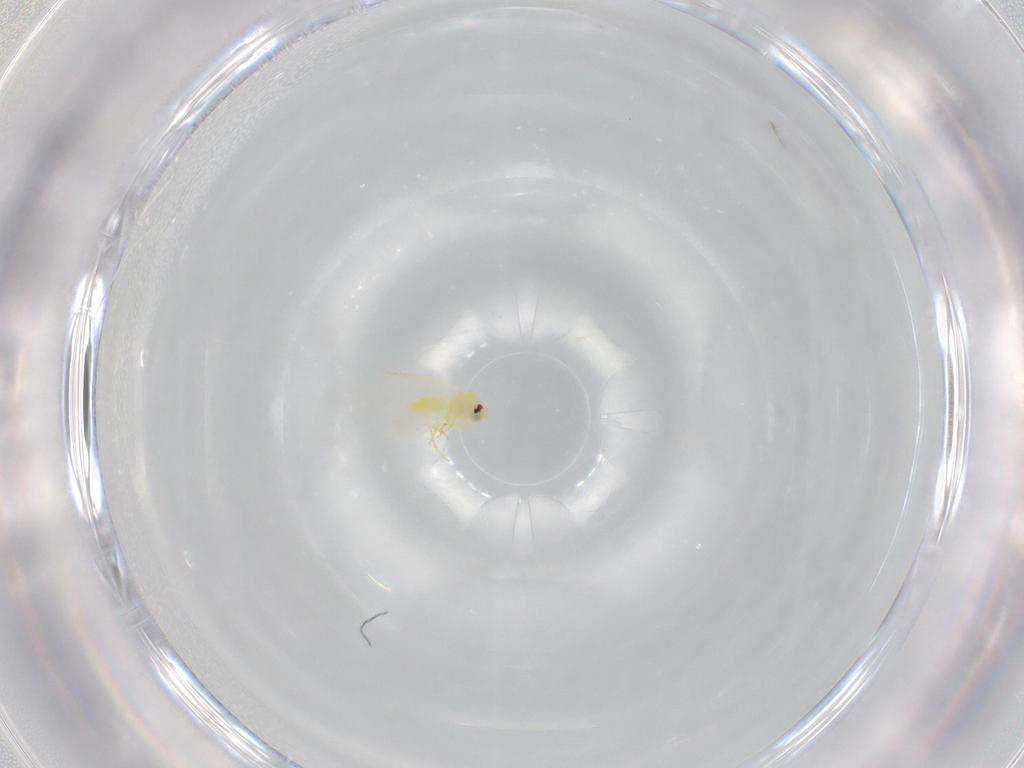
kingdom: Animalia
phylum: Arthropoda
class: Insecta
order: Hemiptera
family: Aleyrodidae
